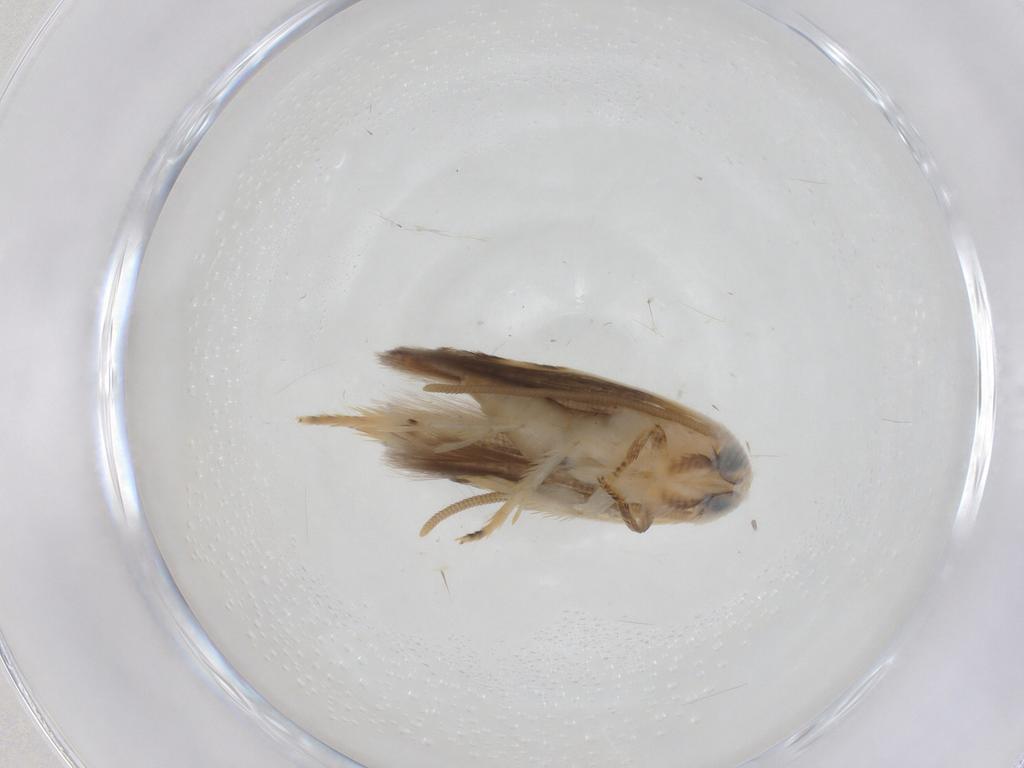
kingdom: Animalia
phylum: Arthropoda
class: Insecta
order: Lepidoptera
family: Opostegidae
